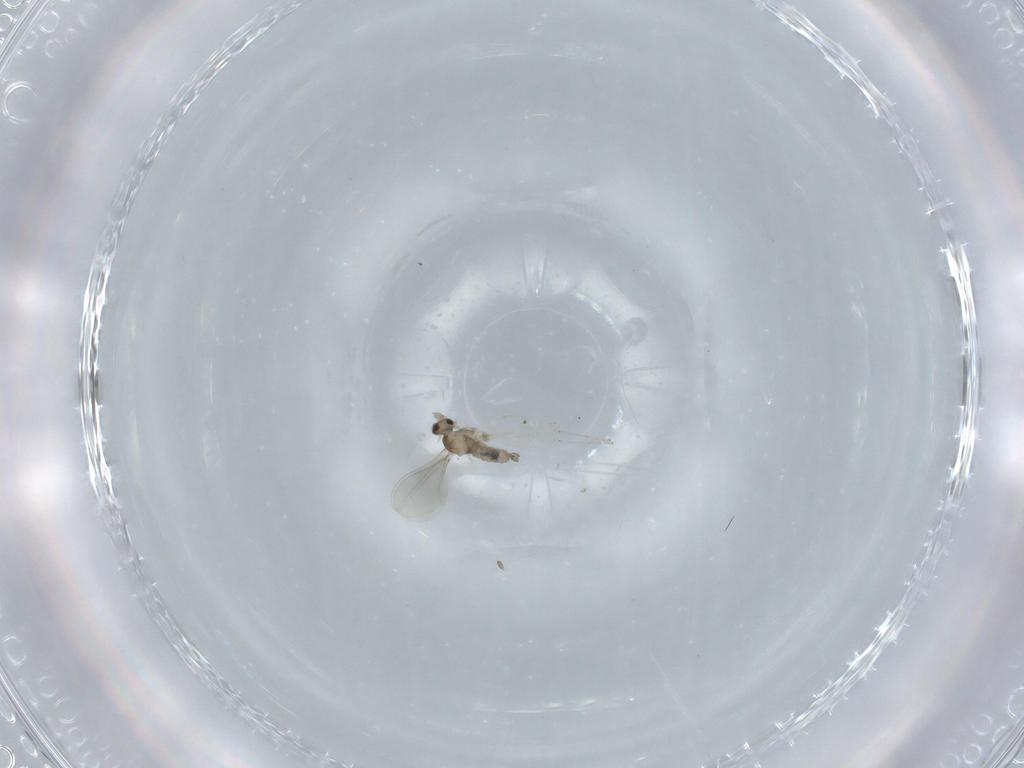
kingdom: Animalia
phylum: Arthropoda
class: Insecta
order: Diptera
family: Cecidomyiidae
